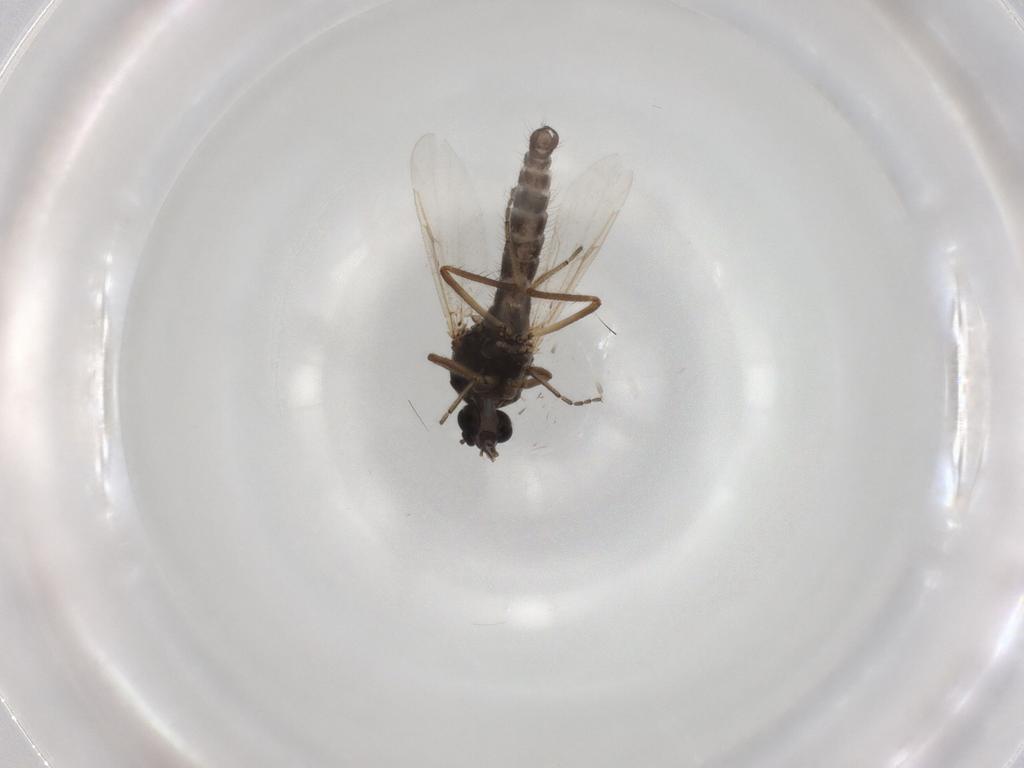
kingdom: Animalia
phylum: Arthropoda
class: Insecta
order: Diptera
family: Ceratopogonidae
